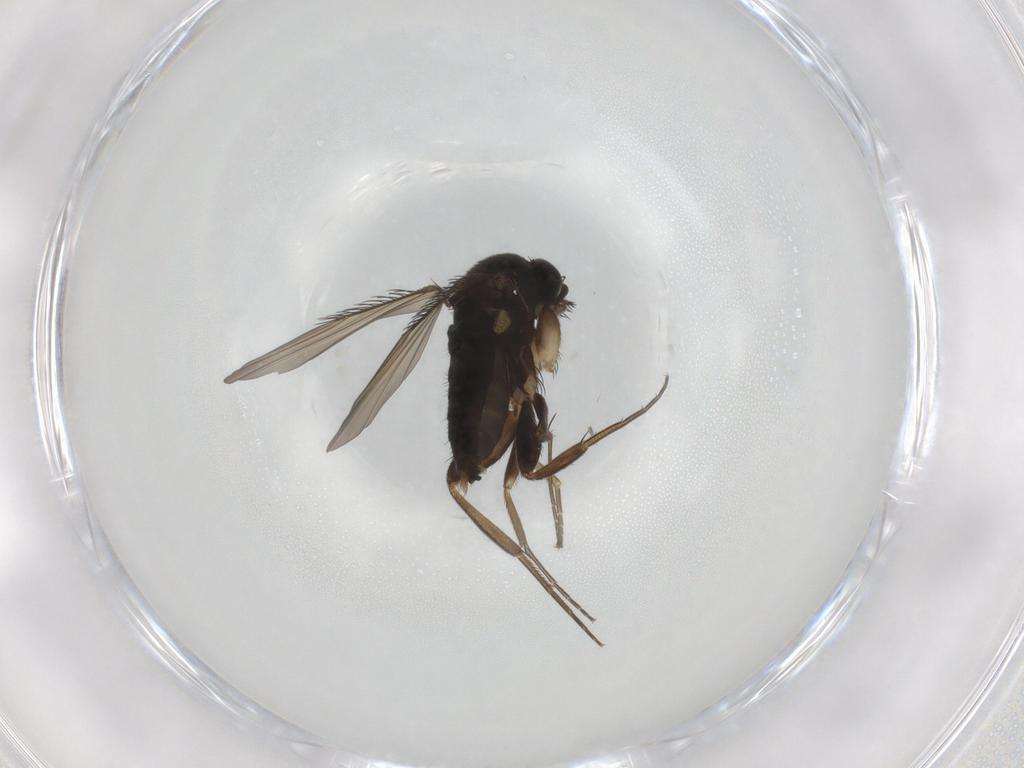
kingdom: Animalia
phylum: Arthropoda
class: Insecta
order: Diptera
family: Phoridae
